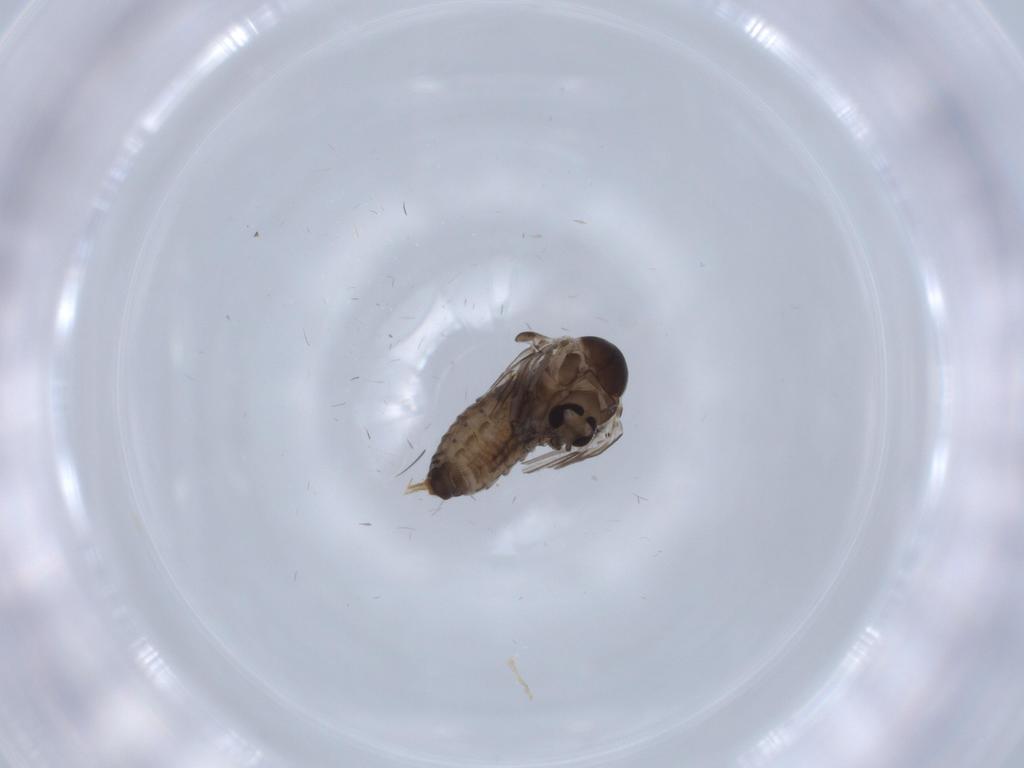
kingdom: Animalia
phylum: Arthropoda
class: Insecta
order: Diptera
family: Psychodidae
